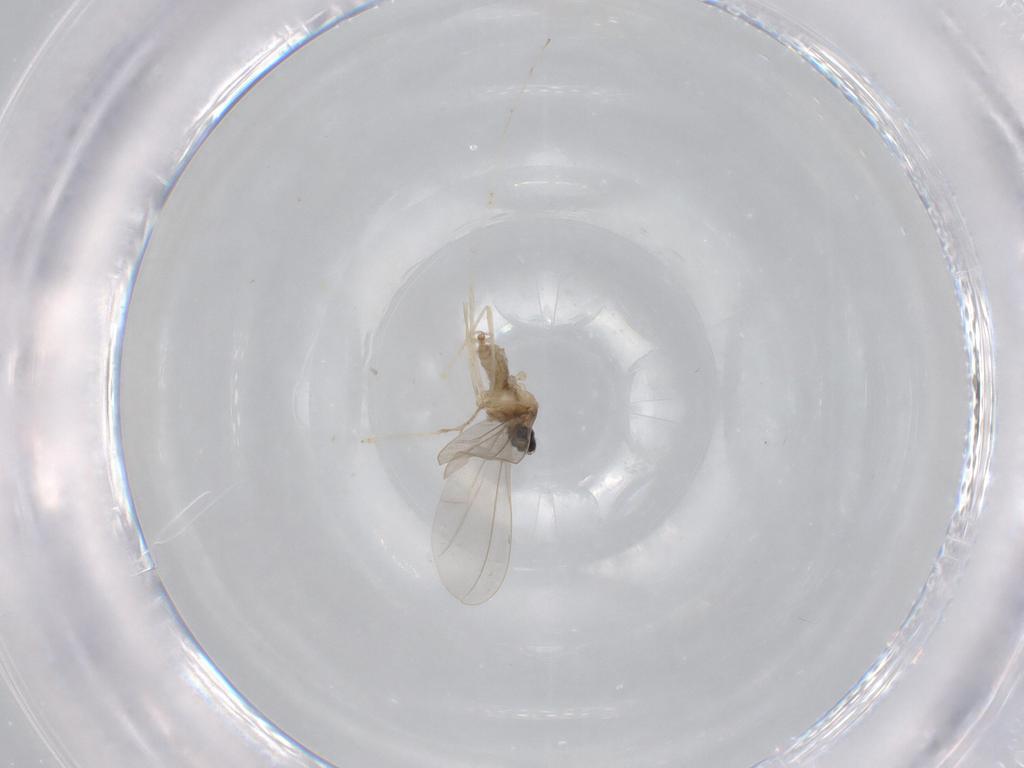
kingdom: Animalia
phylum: Arthropoda
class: Insecta
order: Diptera
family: Cecidomyiidae
